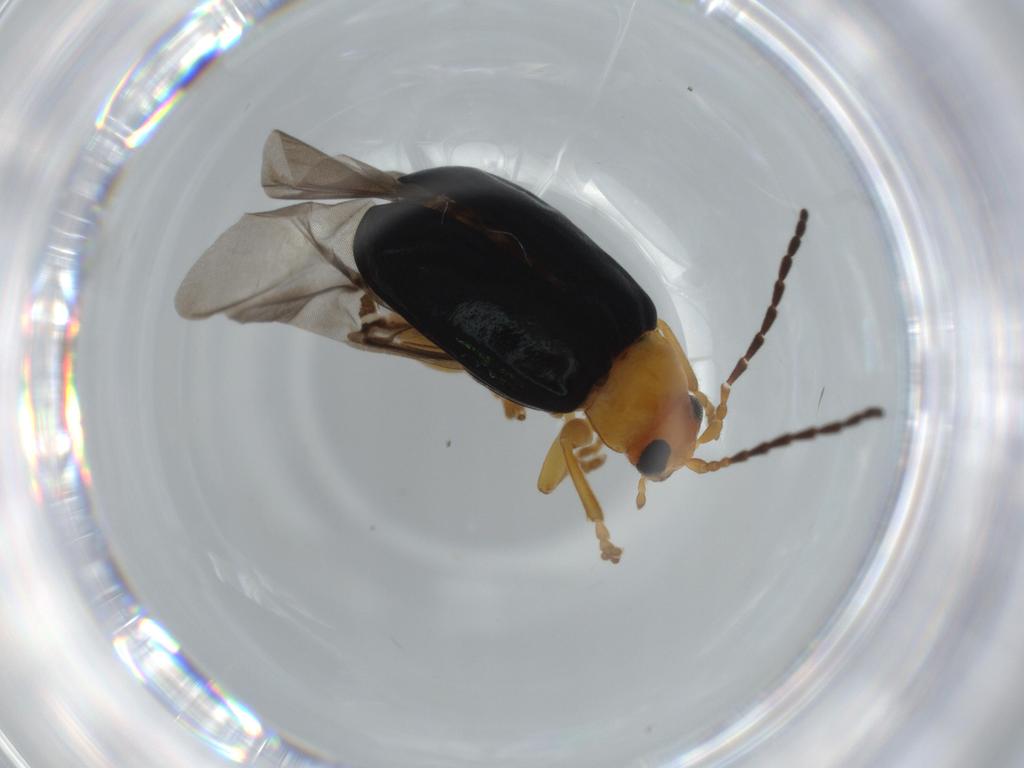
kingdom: Animalia
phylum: Arthropoda
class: Insecta
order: Coleoptera
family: Chrysomelidae
